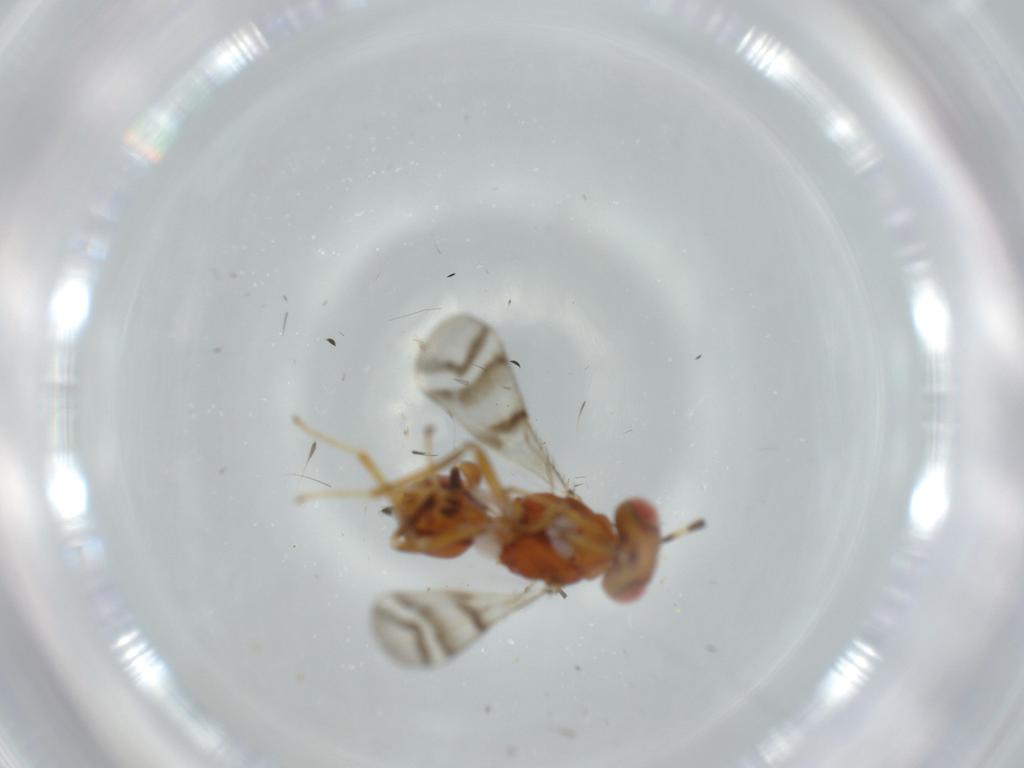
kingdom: Animalia
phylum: Arthropoda
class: Insecta
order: Hymenoptera
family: Diparidae
